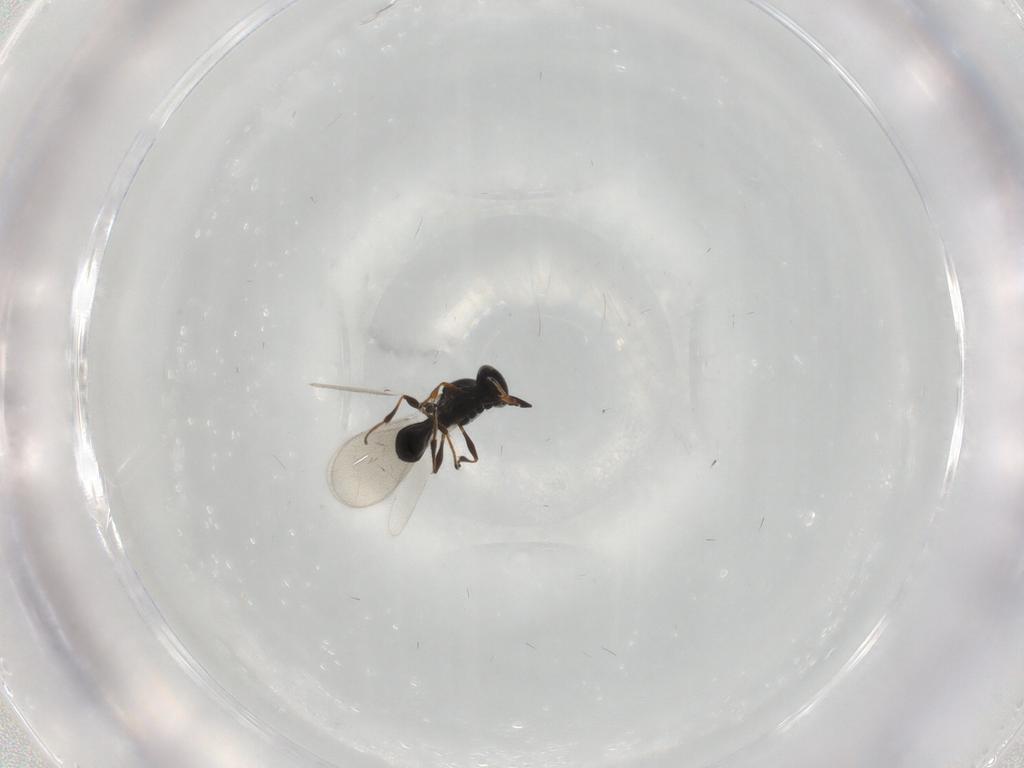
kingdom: Animalia
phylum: Arthropoda
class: Insecta
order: Hymenoptera
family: Platygastridae
